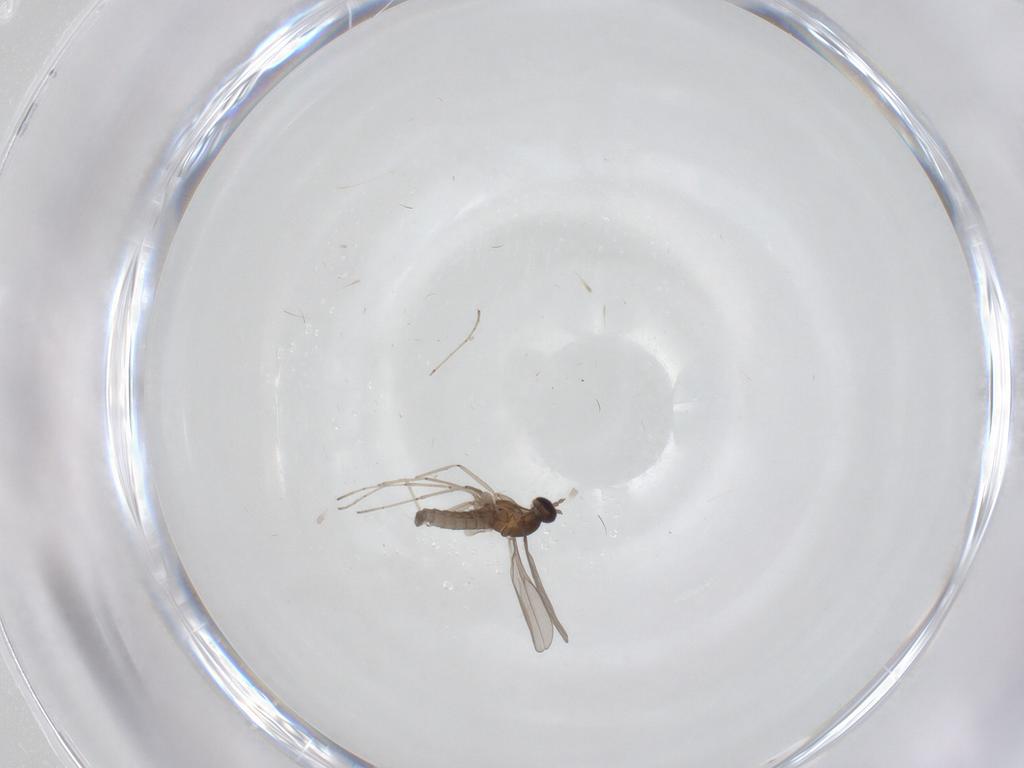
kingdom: Animalia
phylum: Arthropoda
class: Insecta
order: Diptera
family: Cecidomyiidae
